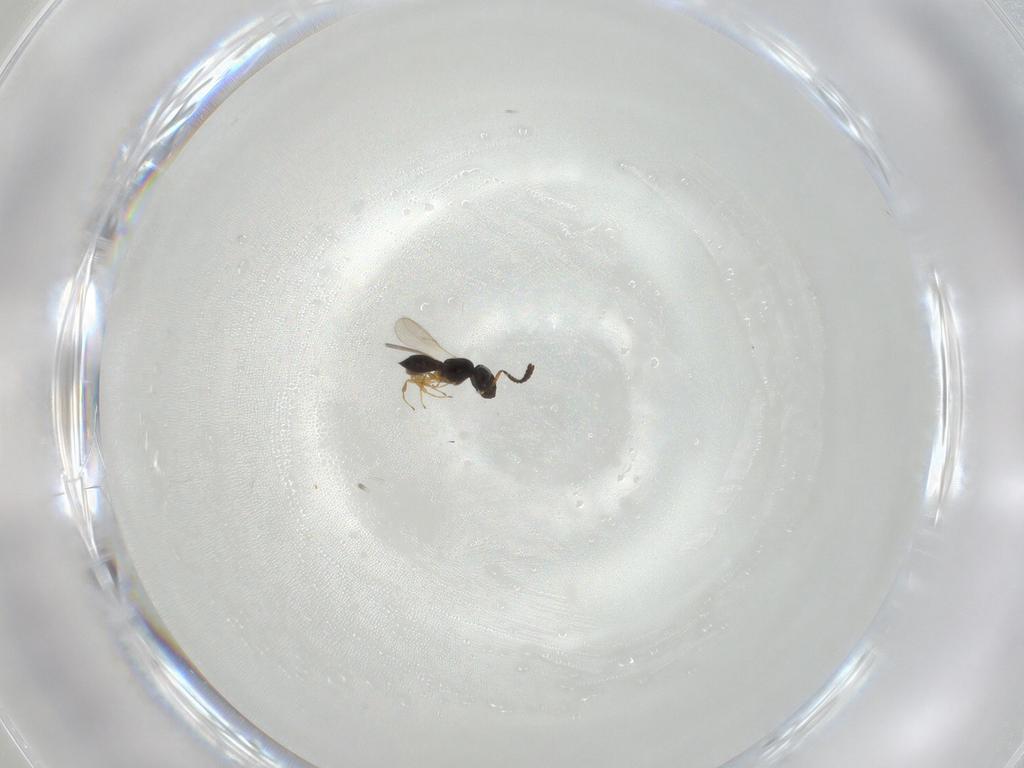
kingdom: Animalia
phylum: Arthropoda
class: Insecta
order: Hymenoptera
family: Scelionidae
